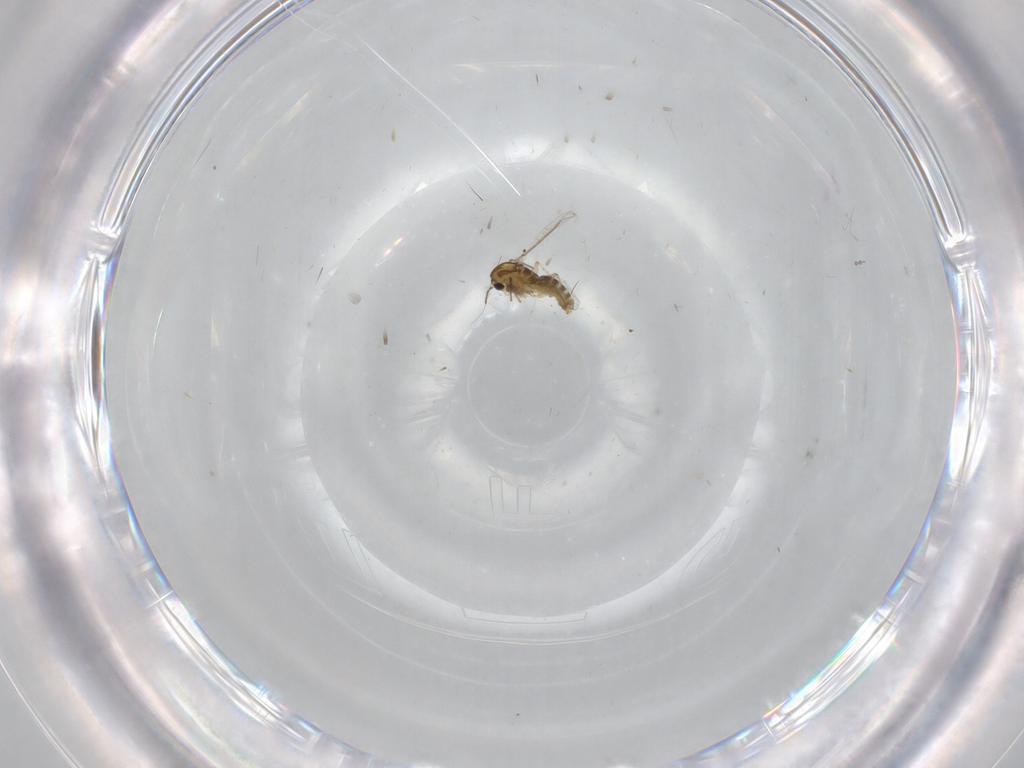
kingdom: Animalia
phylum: Arthropoda
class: Insecta
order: Diptera
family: Chironomidae
